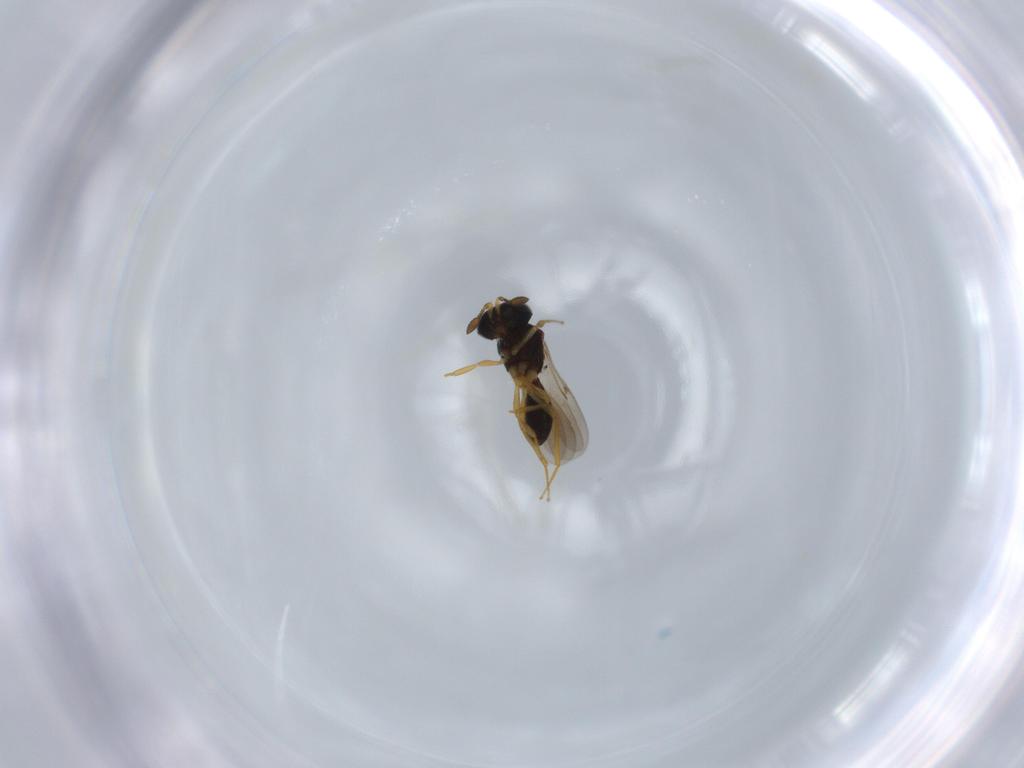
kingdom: Animalia
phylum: Arthropoda
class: Insecta
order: Hymenoptera
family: Scelionidae
